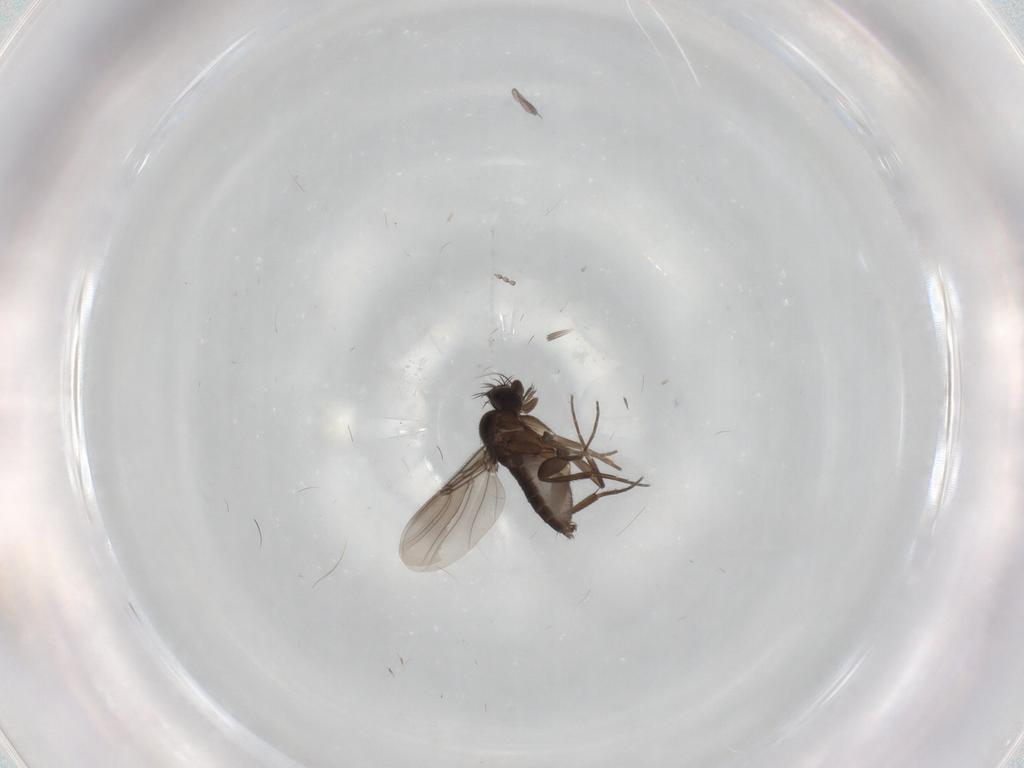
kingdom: Animalia
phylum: Arthropoda
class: Insecta
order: Diptera
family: Phoridae
